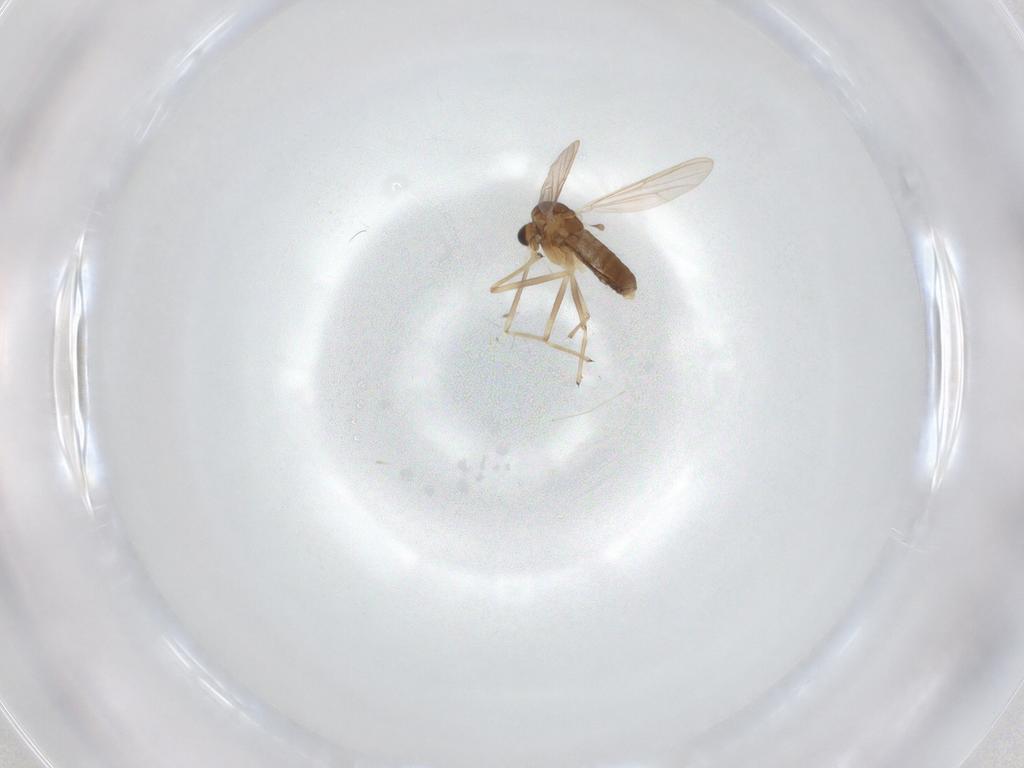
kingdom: Animalia
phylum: Arthropoda
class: Insecta
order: Diptera
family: Chironomidae
